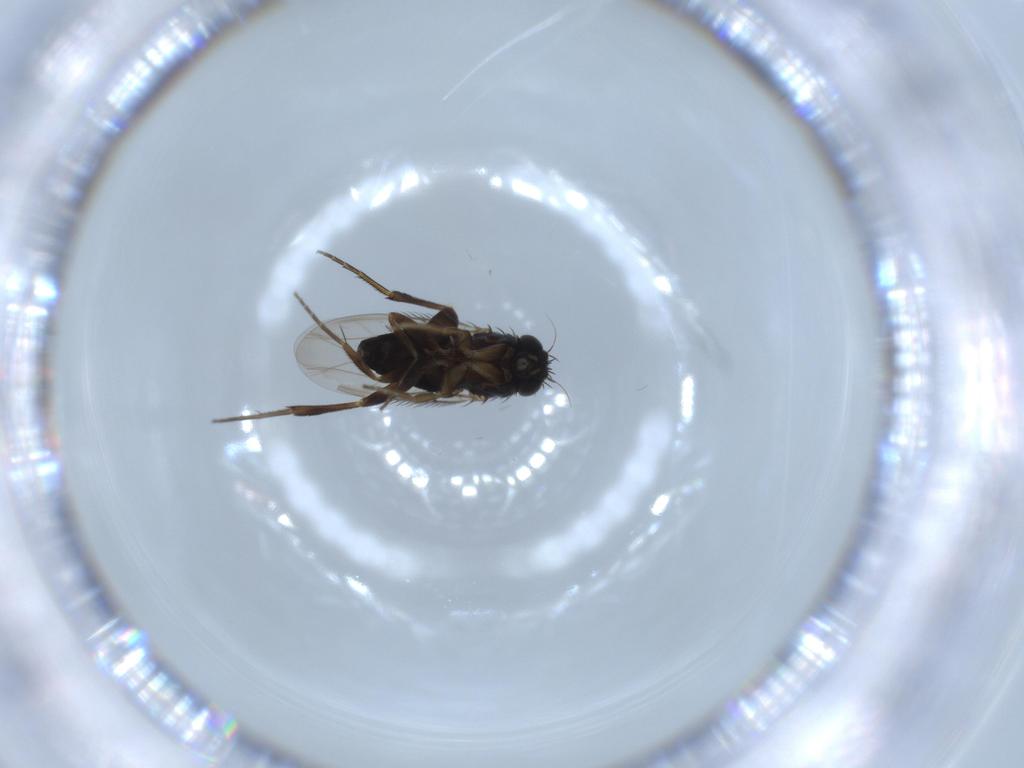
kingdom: Animalia
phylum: Arthropoda
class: Insecta
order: Diptera
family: Phoridae
